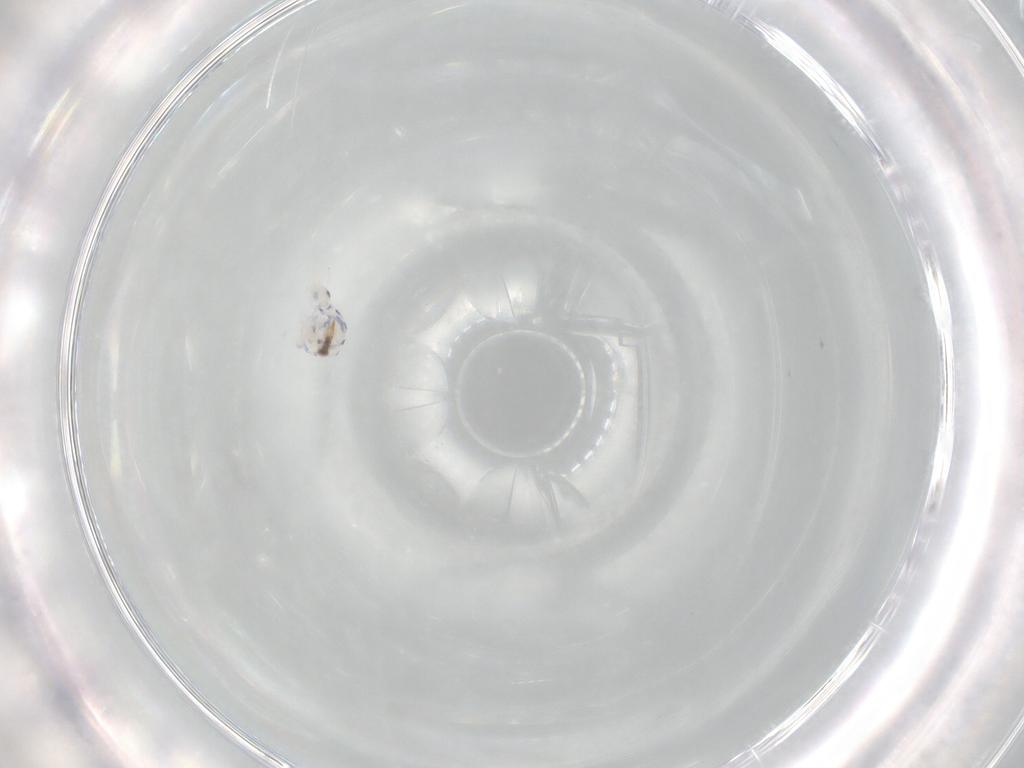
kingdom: Animalia
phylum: Arthropoda
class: Collembola
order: Entomobryomorpha
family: Entomobryidae
